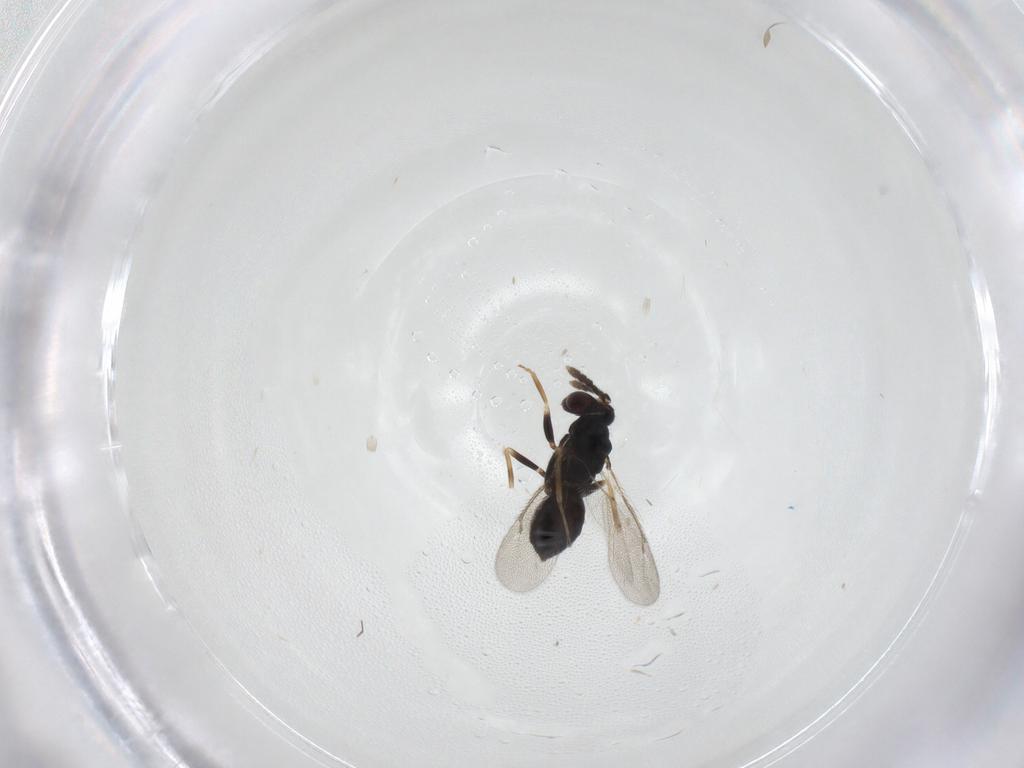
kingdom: Animalia
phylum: Arthropoda
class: Insecta
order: Hymenoptera
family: Eulophidae
